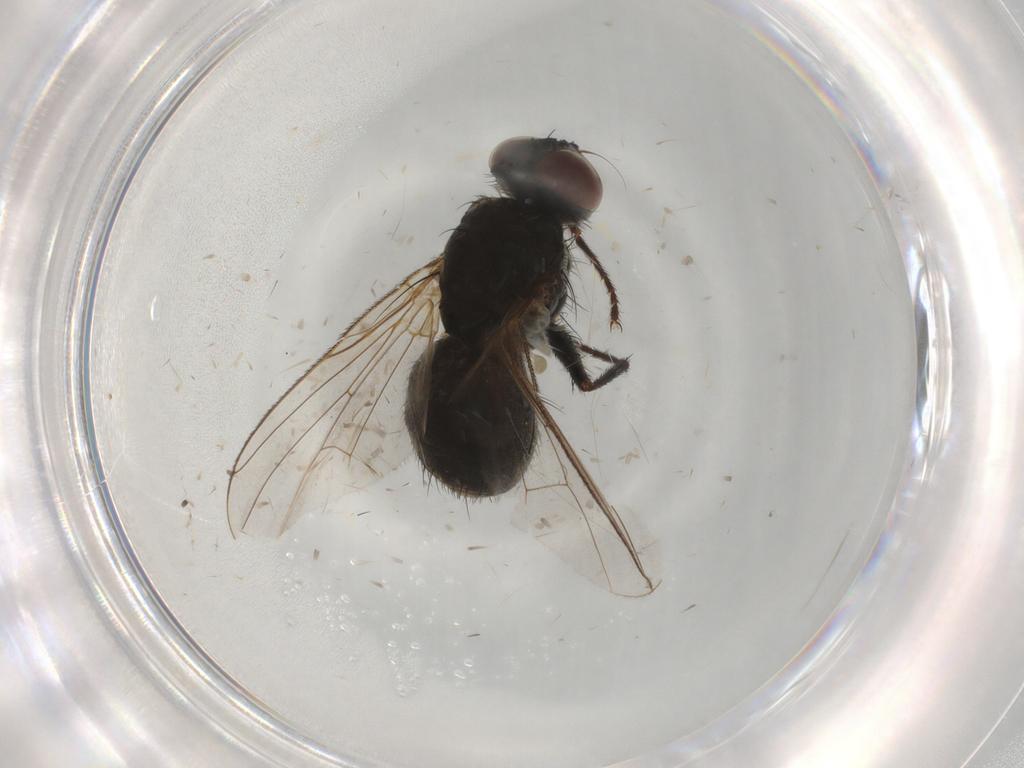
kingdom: Animalia
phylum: Arthropoda
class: Insecta
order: Diptera
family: Muscidae
